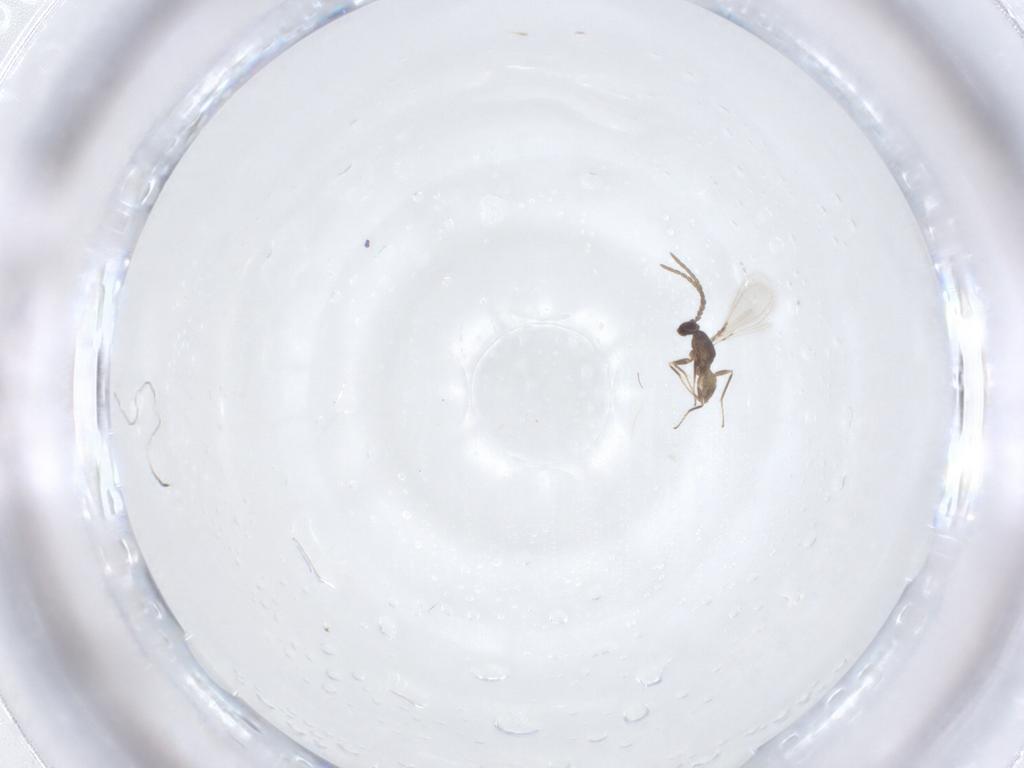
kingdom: Animalia
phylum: Arthropoda
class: Insecta
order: Hymenoptera
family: Mymaridae
